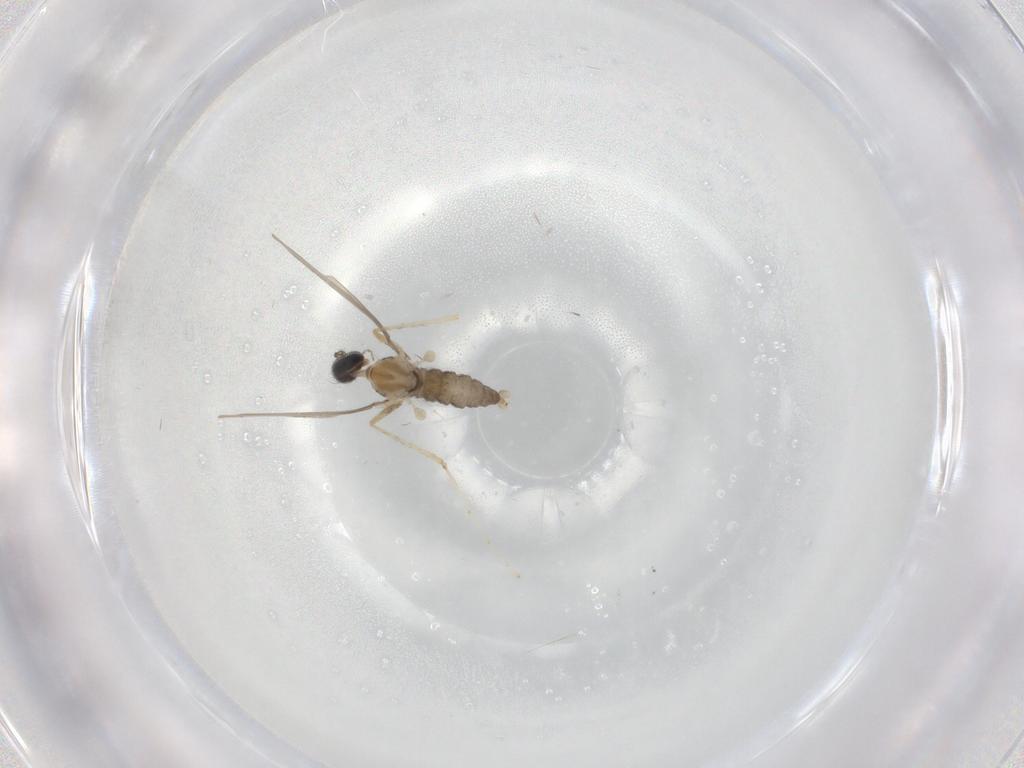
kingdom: Animalia
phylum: Arthropoda
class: Insecta
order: Diptera
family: Cecidomyiidae
